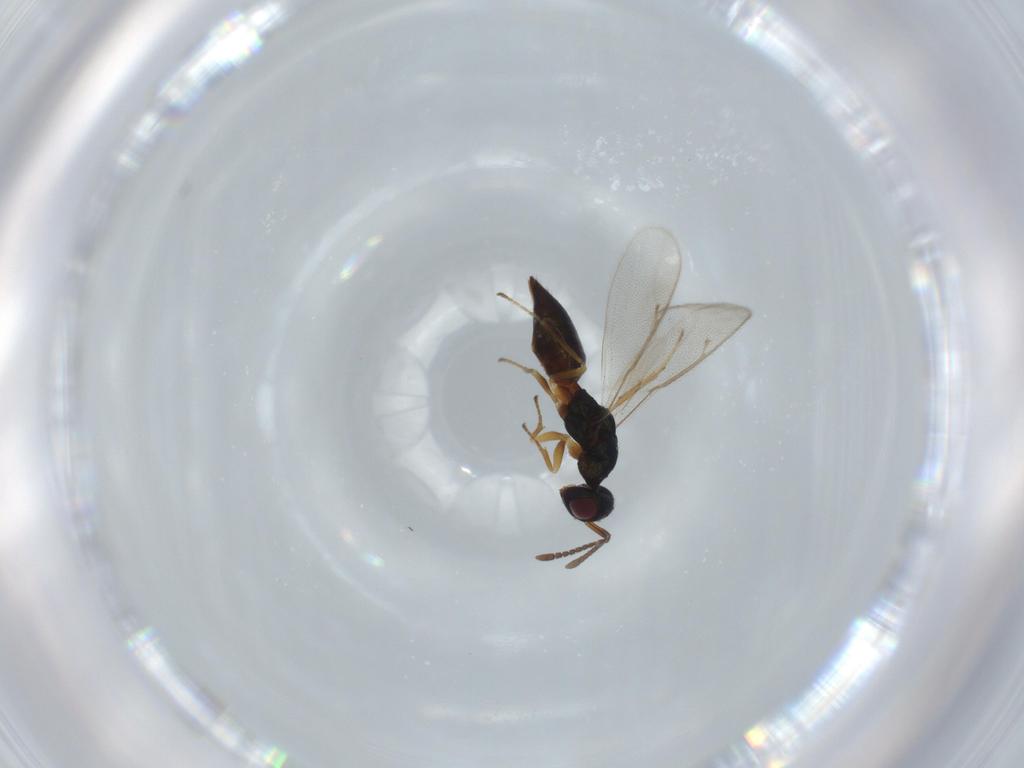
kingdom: Animalia
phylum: Arthropoda
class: Insecta
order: Hymenoptera
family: Pteromalidae
